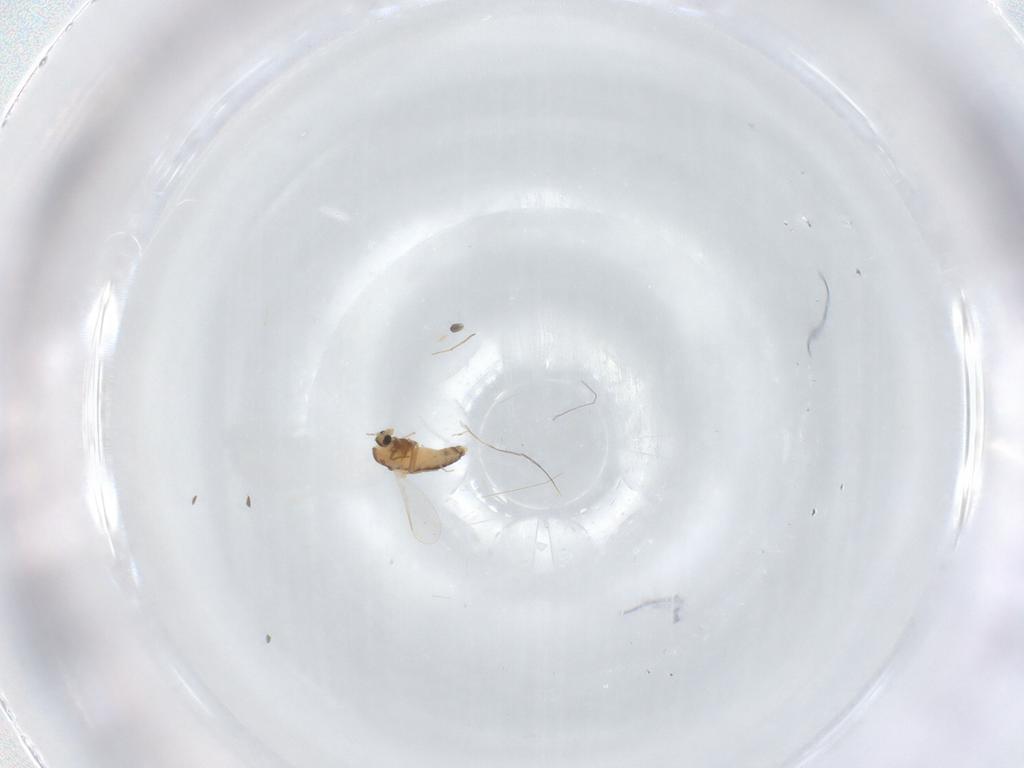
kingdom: Animalia
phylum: Arthropoda
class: Insecta
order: Diptera
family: Chironomidae
